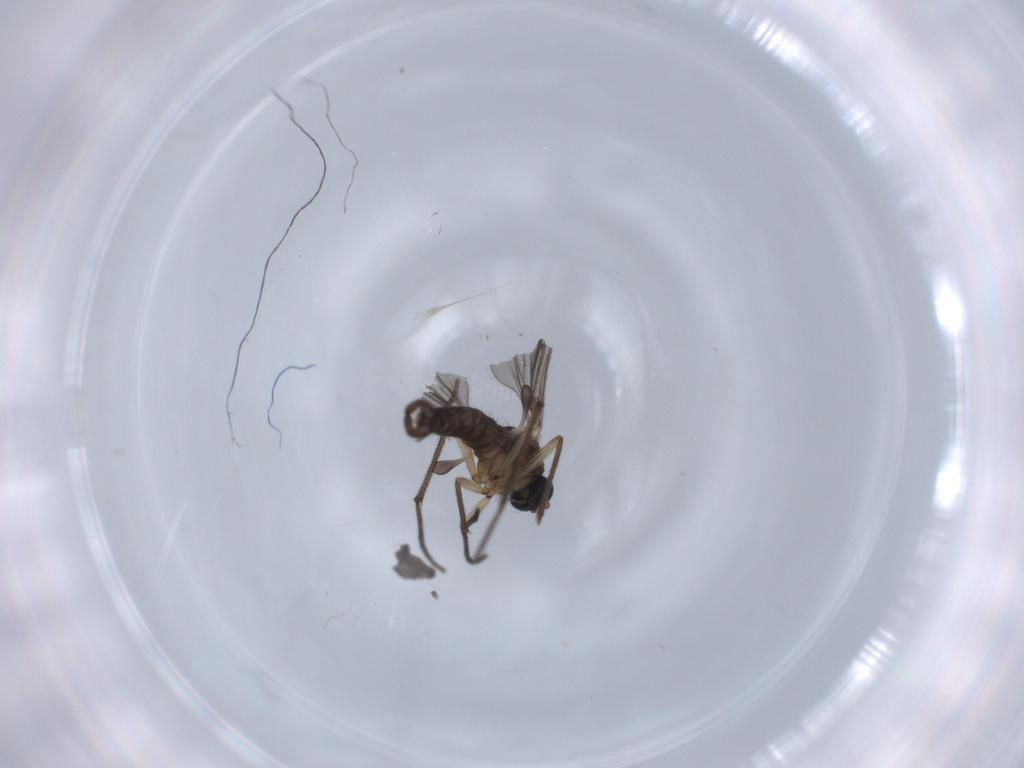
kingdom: Animalia
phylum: Arthropoda
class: Insecta
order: Diptera
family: Sciaridae
